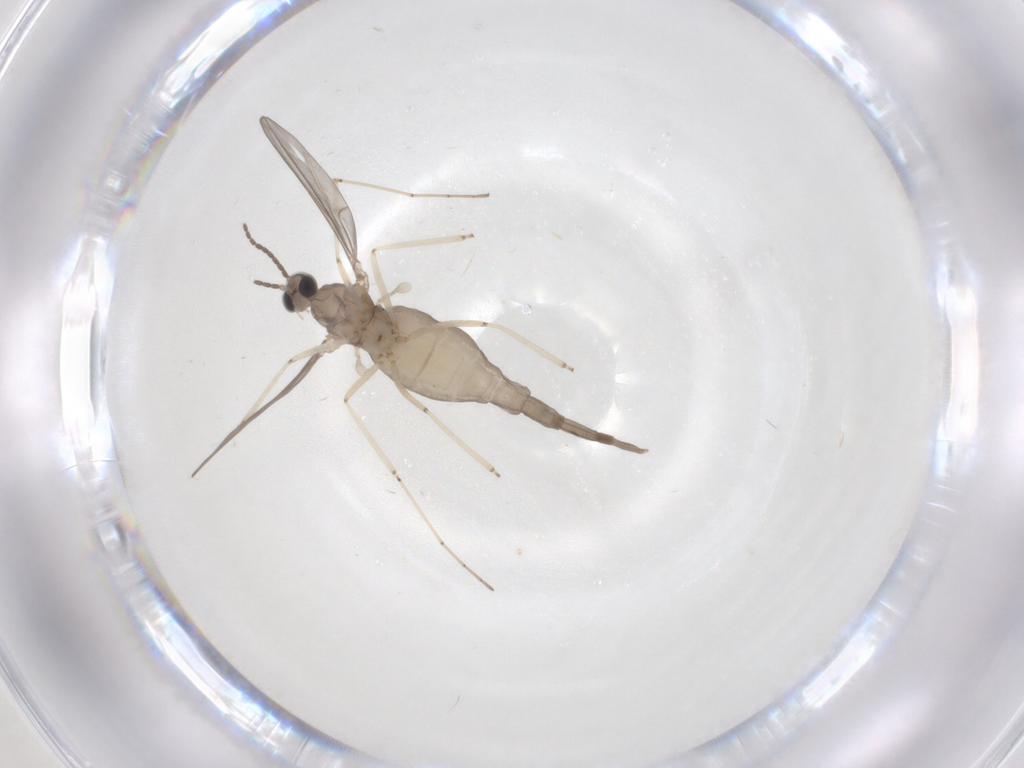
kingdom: Animalia
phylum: Arthropoda
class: Insecta
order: Diptera
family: Cecidomyiidae
